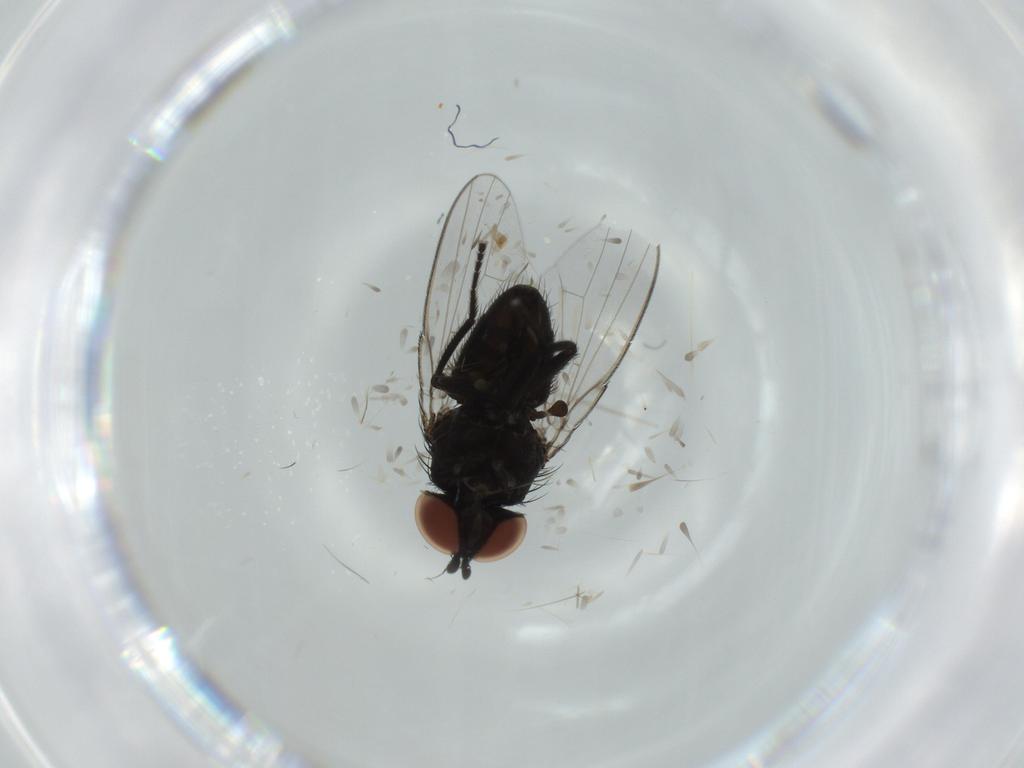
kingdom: Animalia
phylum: Arthropoda
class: Insecta
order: Diptera
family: Milichiidae
